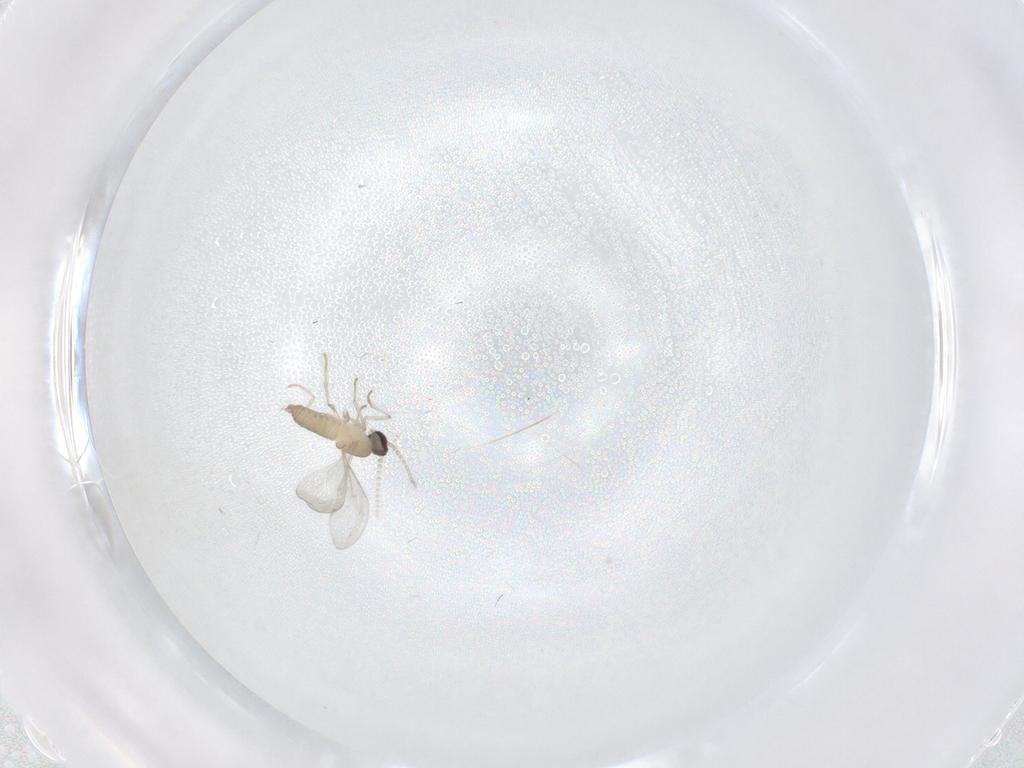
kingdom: Animalia
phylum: Arthropoda
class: Insecta
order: Diptera
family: Cecidomyiidae
